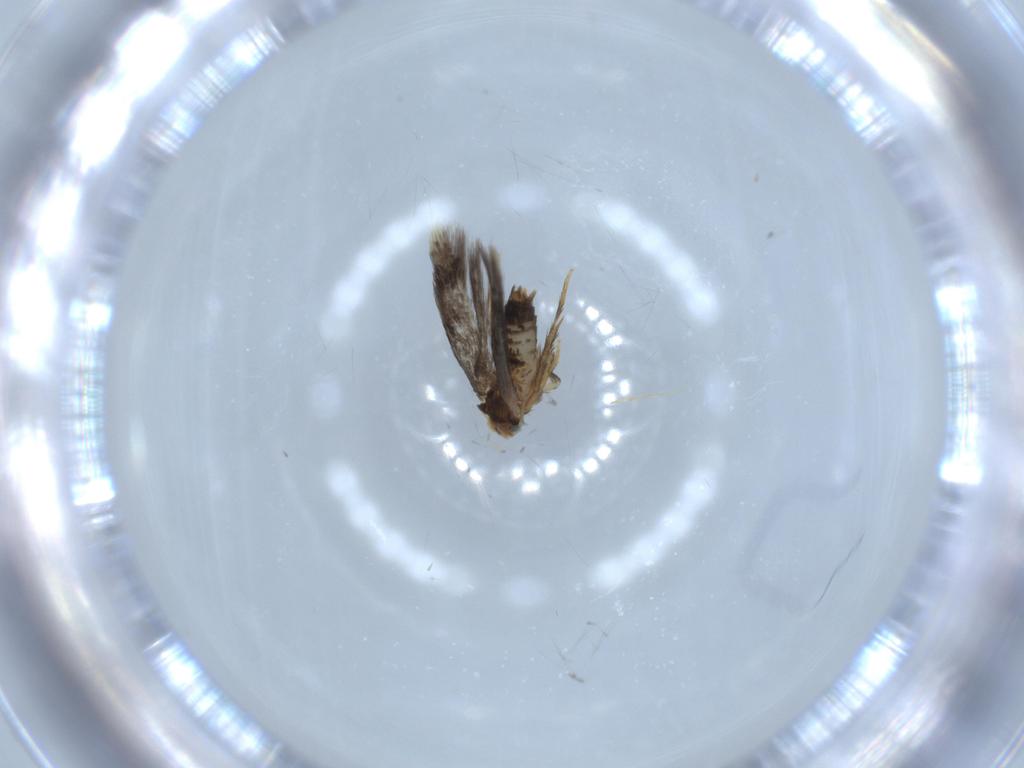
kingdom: Animalia
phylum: Arthropoda
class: Insecta
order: Lepidoptera
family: Nepticulidae
